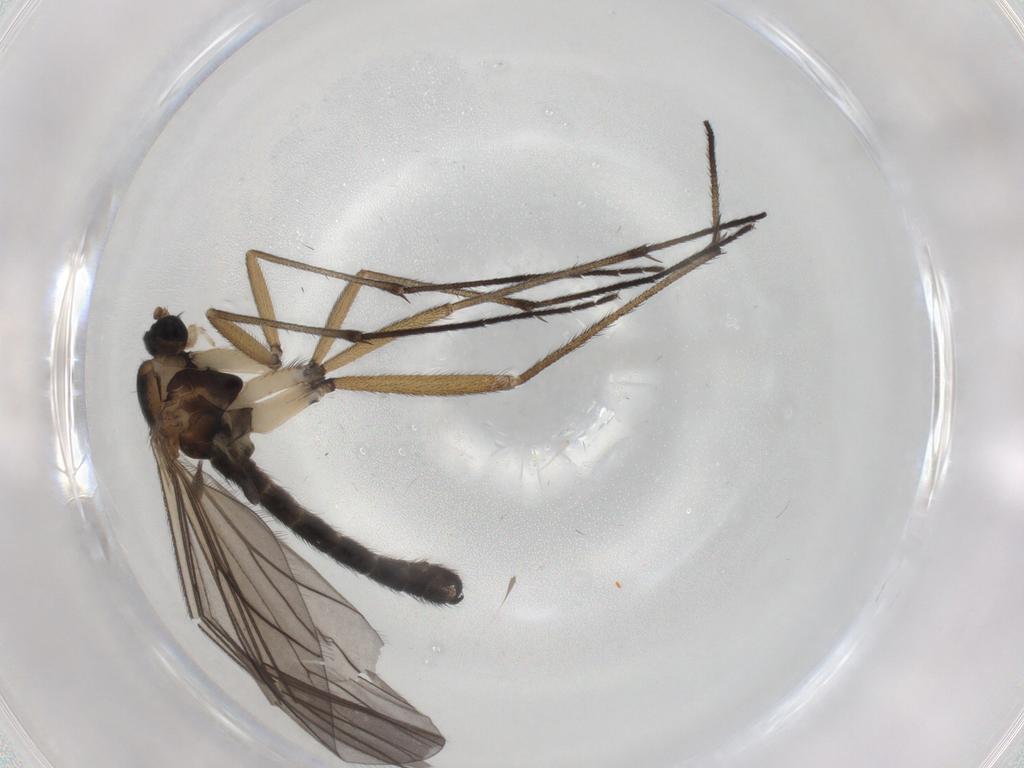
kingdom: Animalia
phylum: Arthropoda
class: Insecta
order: Diptera
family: Sciaridae
